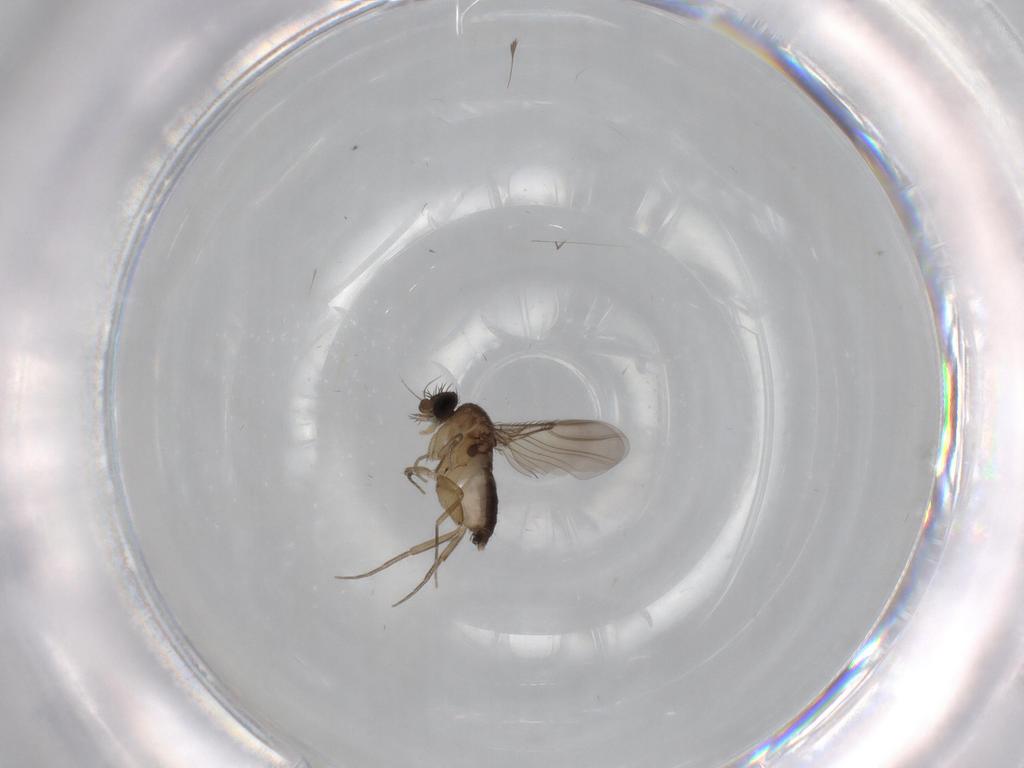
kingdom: Animalia
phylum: Arthropoda
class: Insecta
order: Diptera
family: Phoridae
